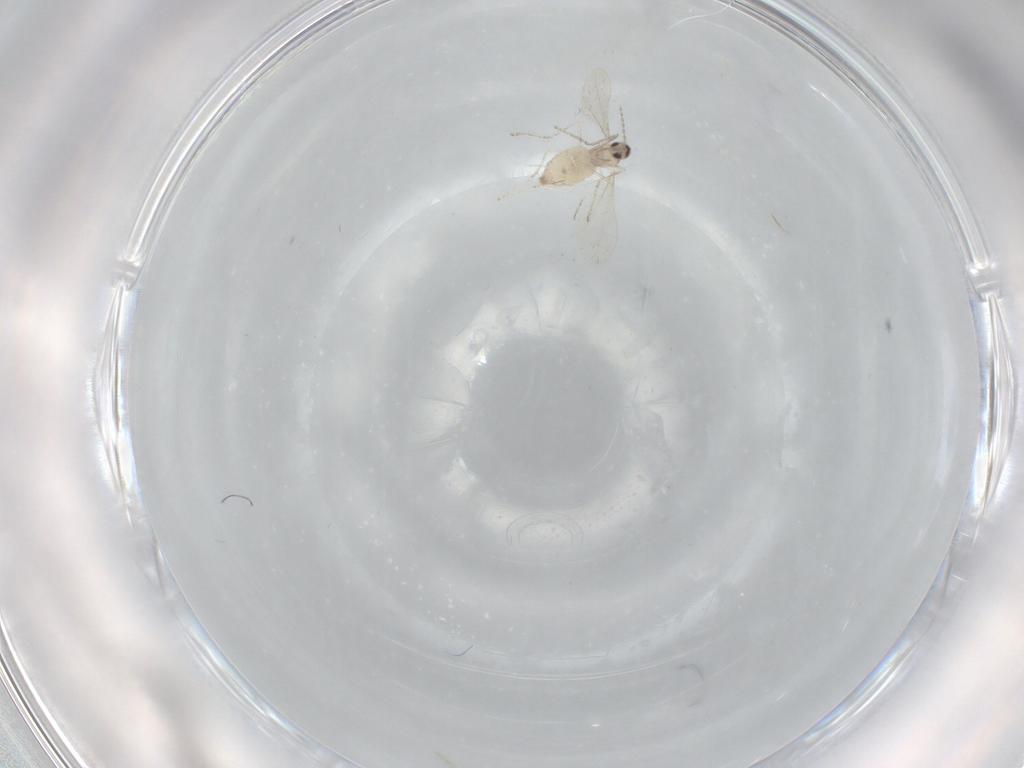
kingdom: Animalia
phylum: Arthropoda
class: Insecta
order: Diptera
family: Cecidomyiidae
